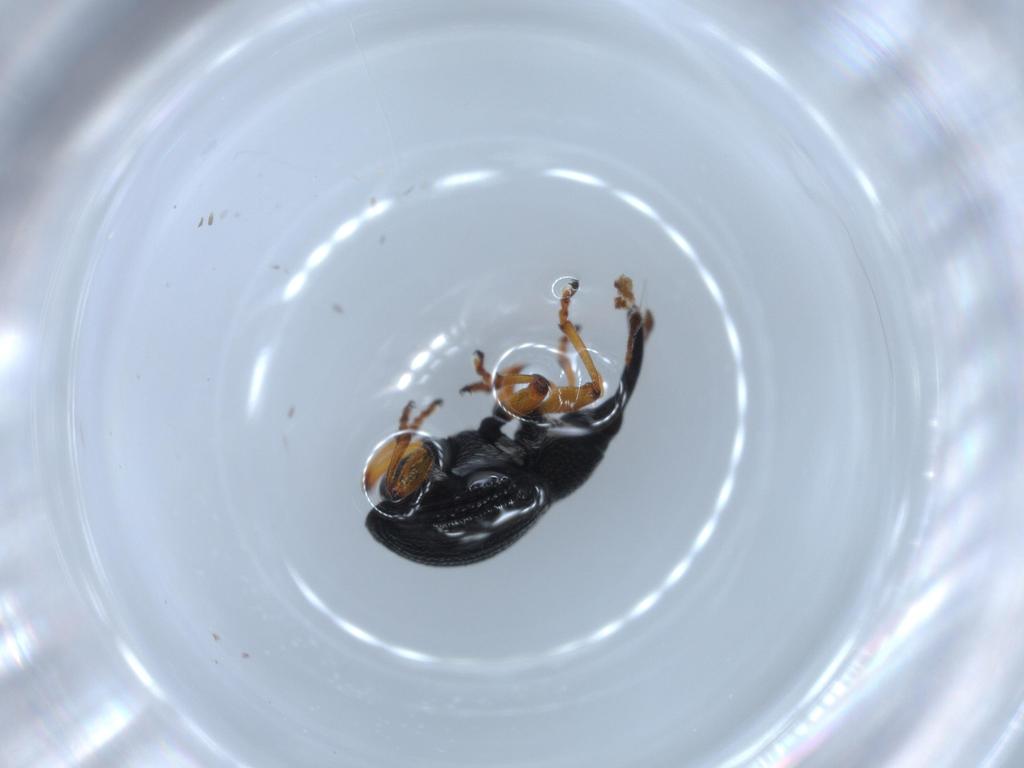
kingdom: Animalia
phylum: Arthropoda
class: Insecta
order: Coleoptera
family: Brentidae
